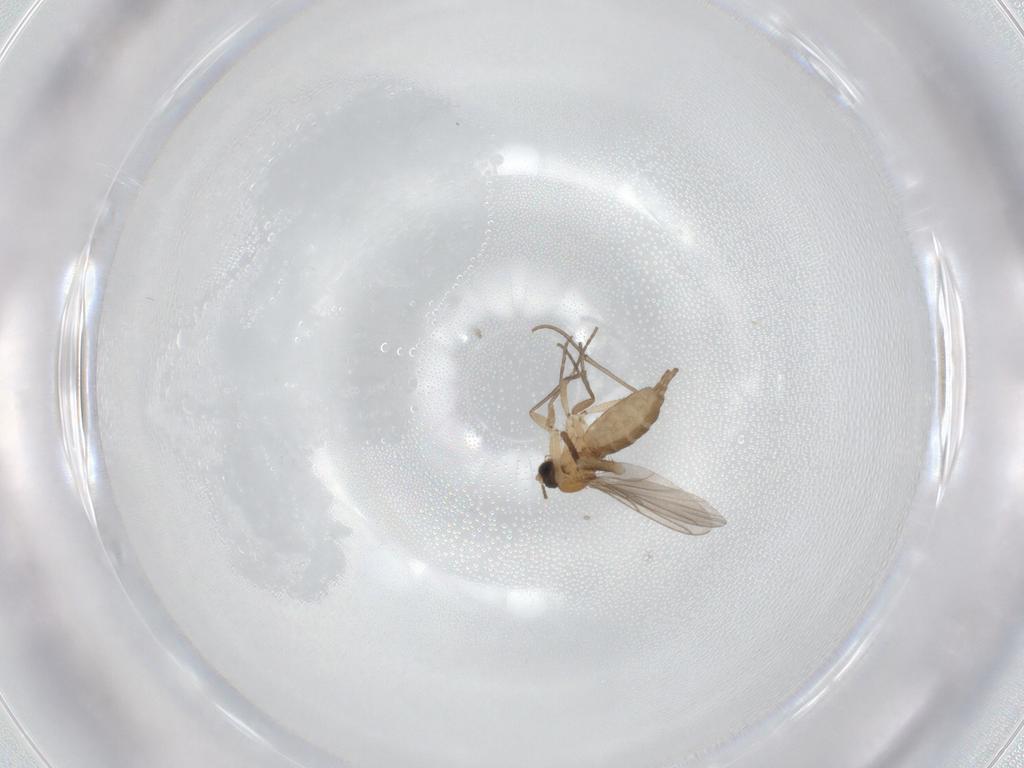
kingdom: Animalia
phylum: Arthropoda
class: Insecta
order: Diptera
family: Sciaridae
